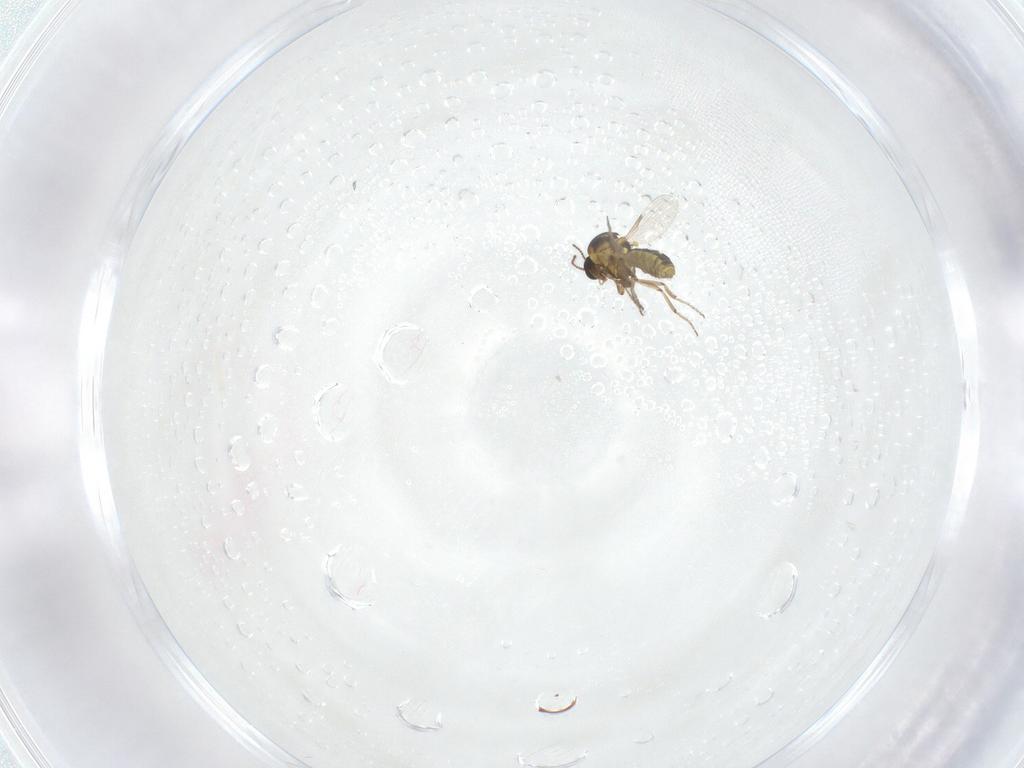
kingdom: Animalia
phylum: Arthropoda
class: Insecta
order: Diptera
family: Ceratopogonidae
